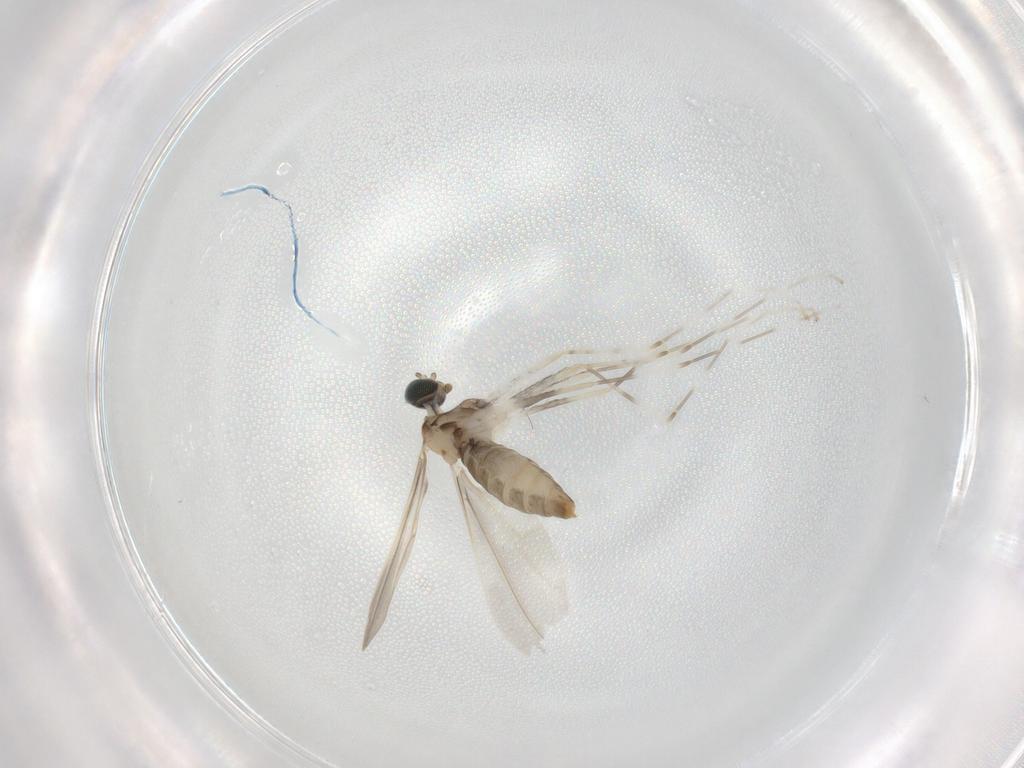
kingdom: Animalia
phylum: Arthropoda
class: Insecta
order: Diptera
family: Cecidomyiidae
